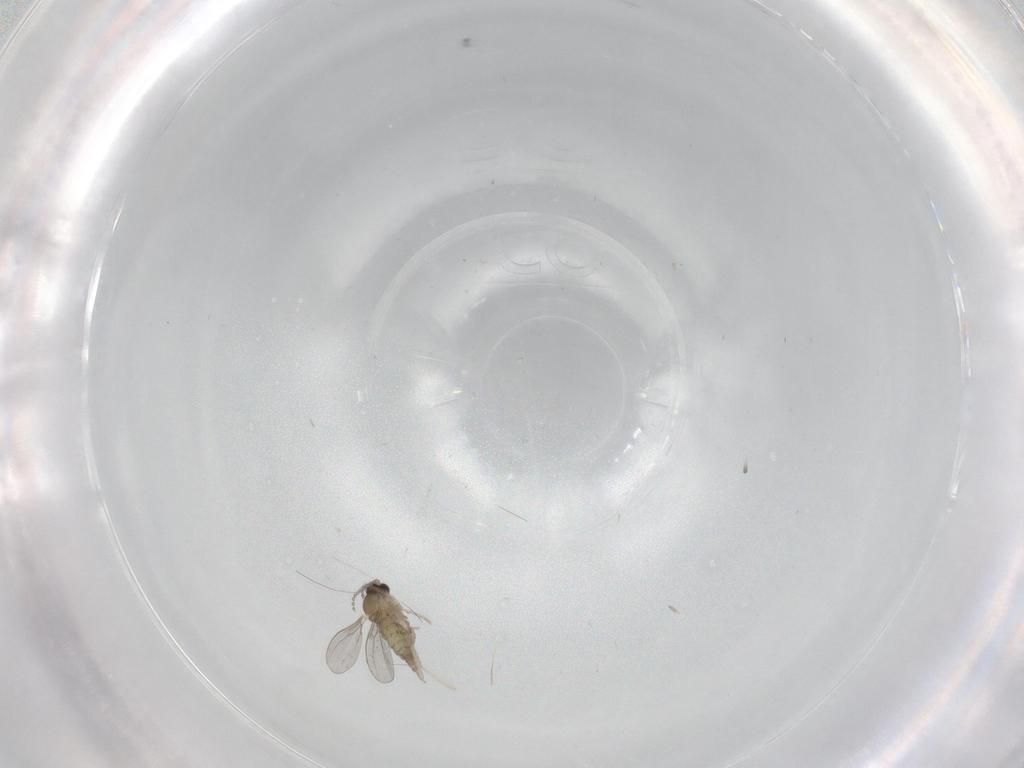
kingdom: Animalia
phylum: Arthropoda
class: Insecta
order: Diptera
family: Cecidomyiidae
